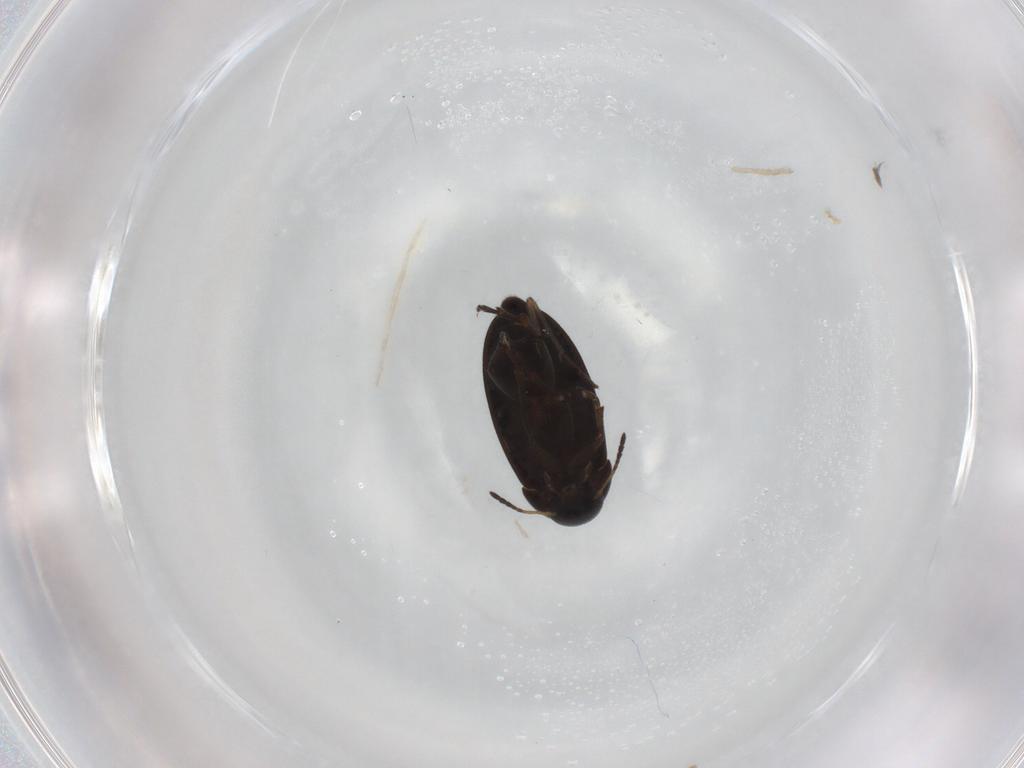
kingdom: Animalia
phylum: Arthropoda
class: Insecta
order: Coleoptera
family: Scraptiidae
